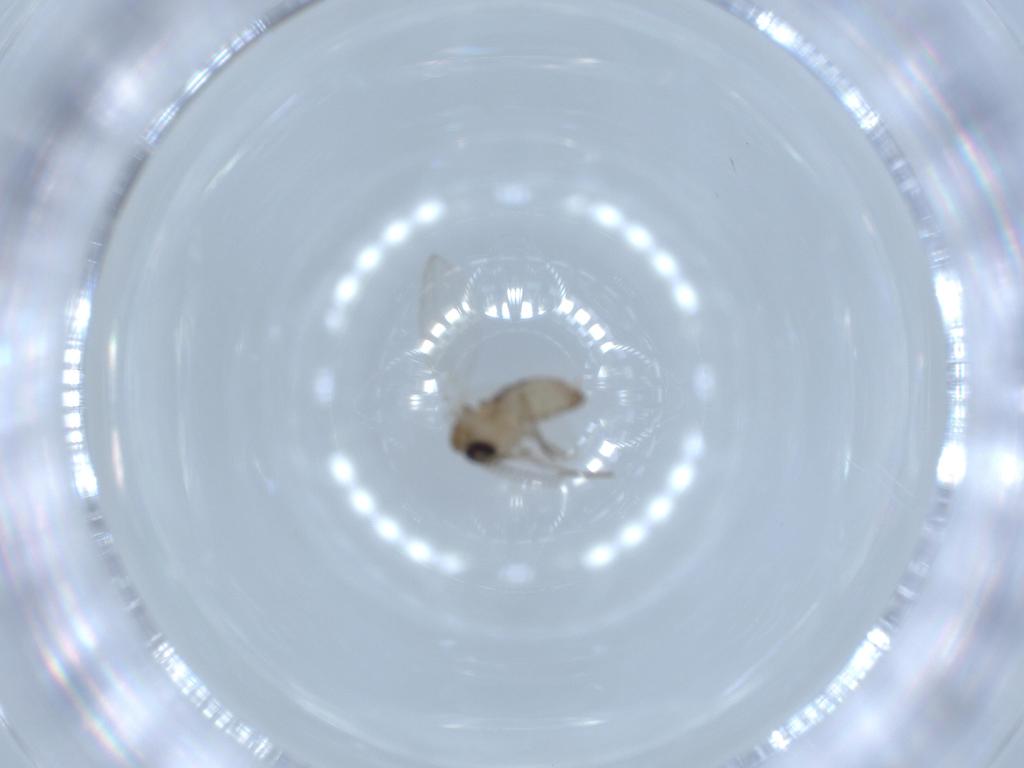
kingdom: Animalia
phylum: Arthropoda
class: Insecta
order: Diptera
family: Psychodidae
